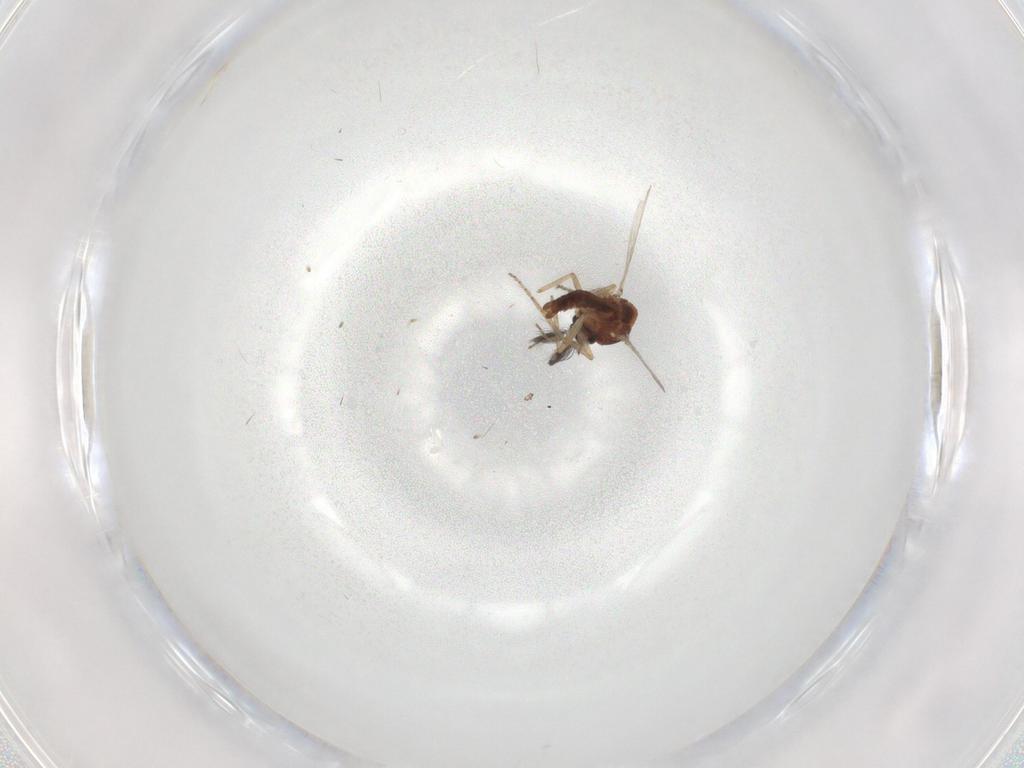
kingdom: Animalia
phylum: Arthropoda
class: Insecta
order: Diptera
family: Ceratopogonidae
